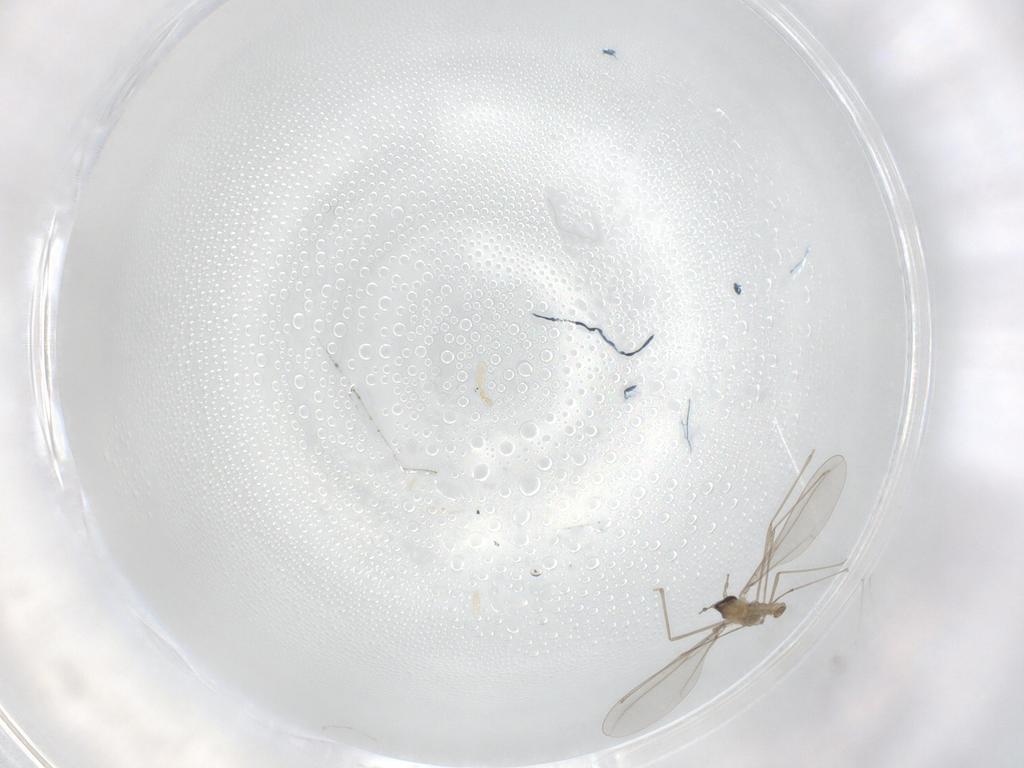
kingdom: Animalia
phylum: Arthropoda
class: Insecta
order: Diptera
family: Cecidomyiidae
